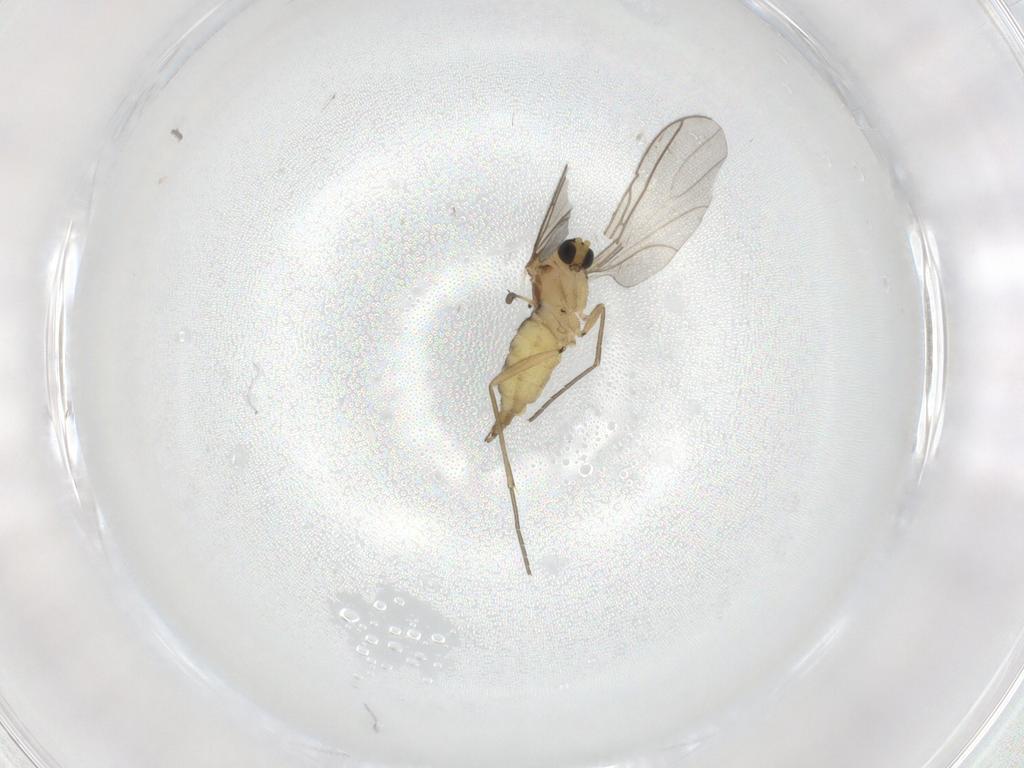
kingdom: Animalia
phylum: Arthropoda
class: Insecta
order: Diptera
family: Sciaridae
